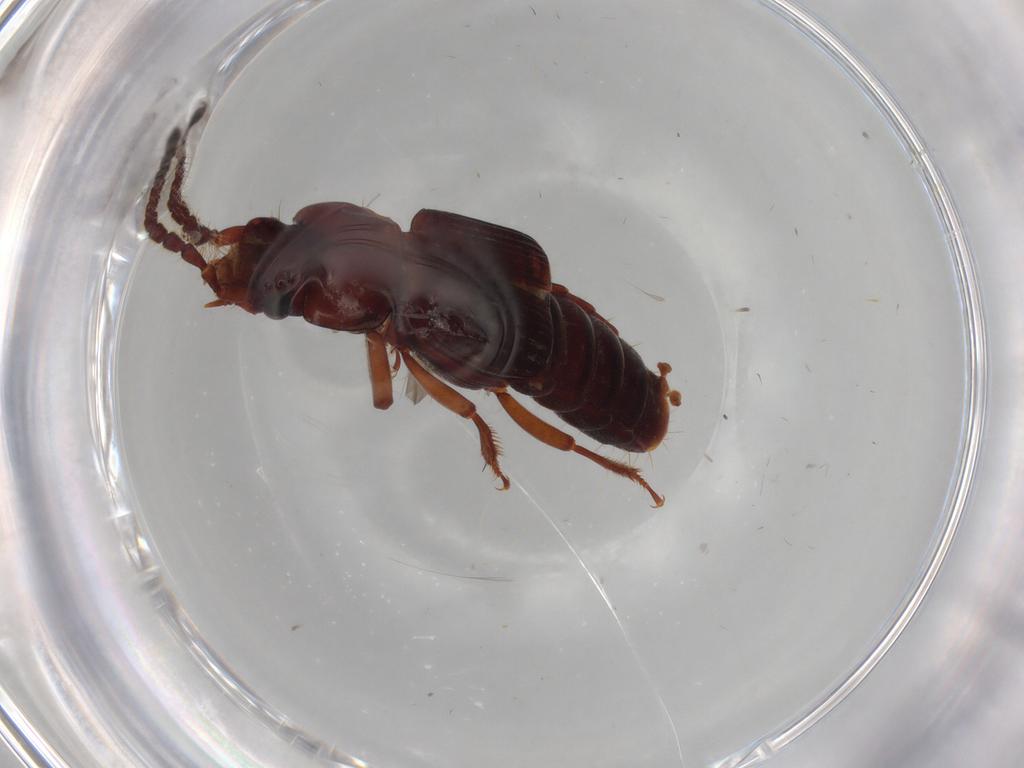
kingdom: Animalia
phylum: Arthropoda
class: Insecta
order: Coleoptera
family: Staphylinidae
